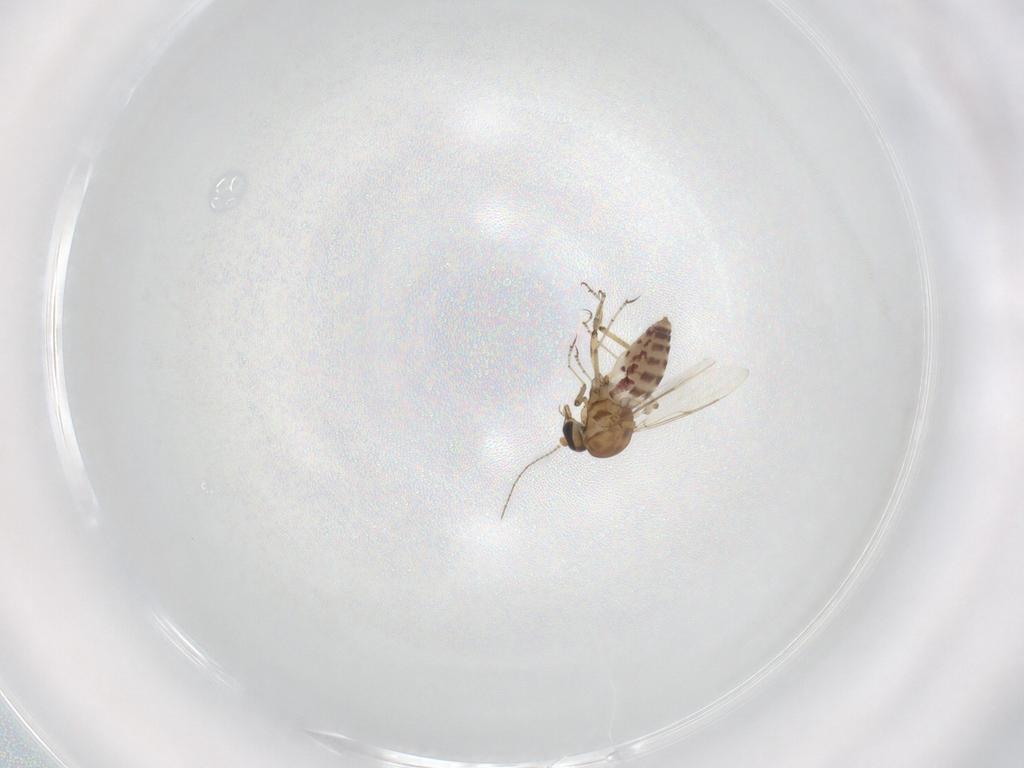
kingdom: Animalia
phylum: Arthropoda
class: Insecta
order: Diptera
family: Ceratopogonidae
